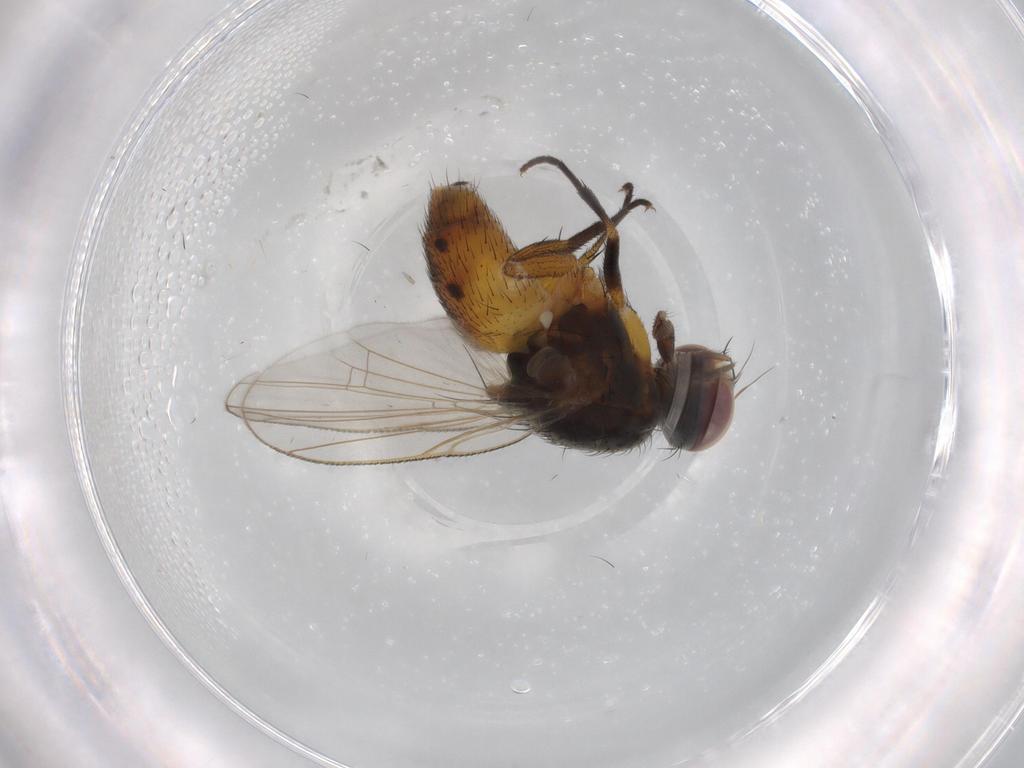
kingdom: Animalia
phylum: Arthropoda
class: Insecta
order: Diptera
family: Muscidae
